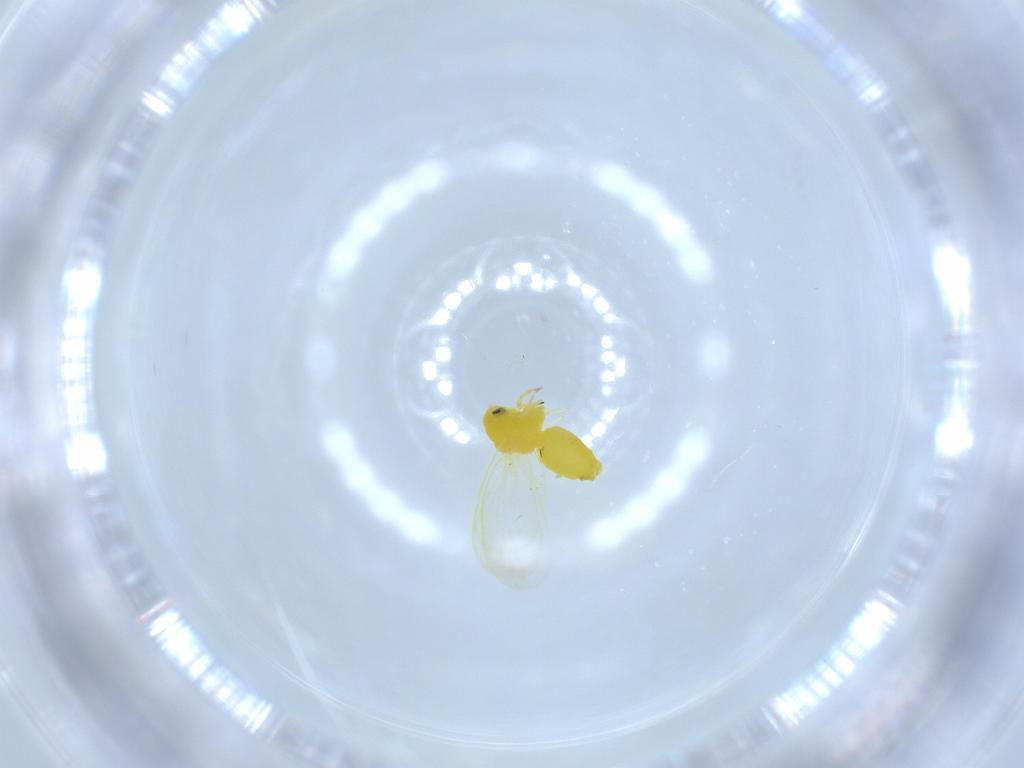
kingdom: Animalia
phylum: Arthropoda
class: Insecta
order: Hemiptera
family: Aleyrodidae
